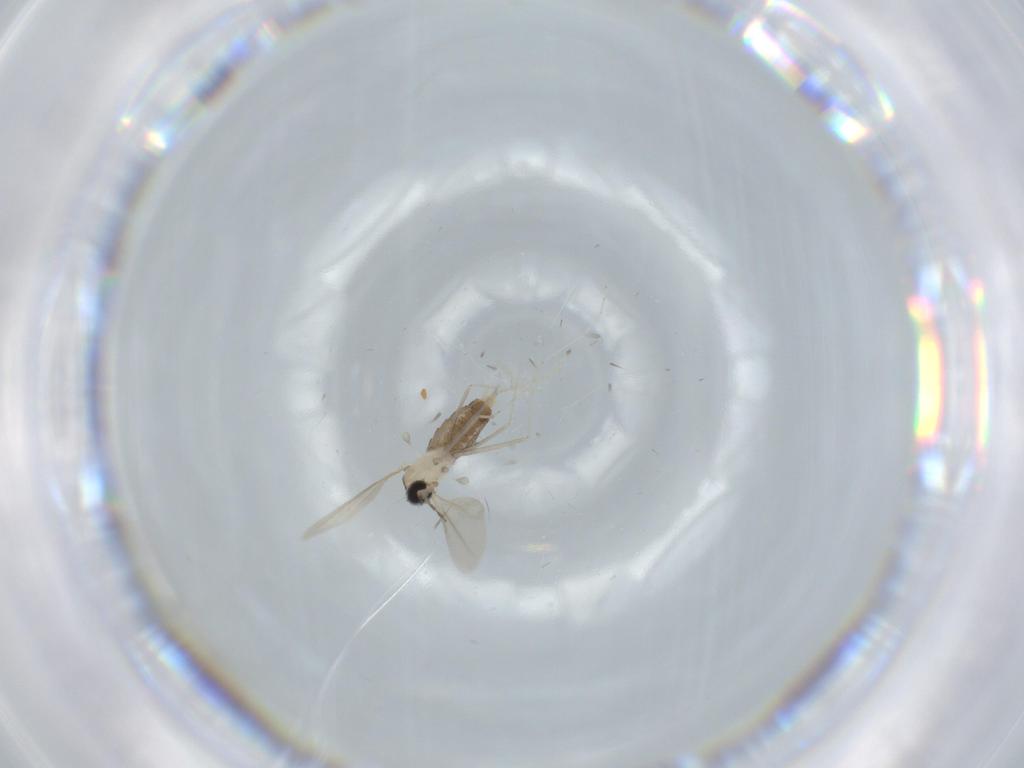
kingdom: Animalia
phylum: Arthropoda
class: Insecta
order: Diptera
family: Cecidomyiidae
